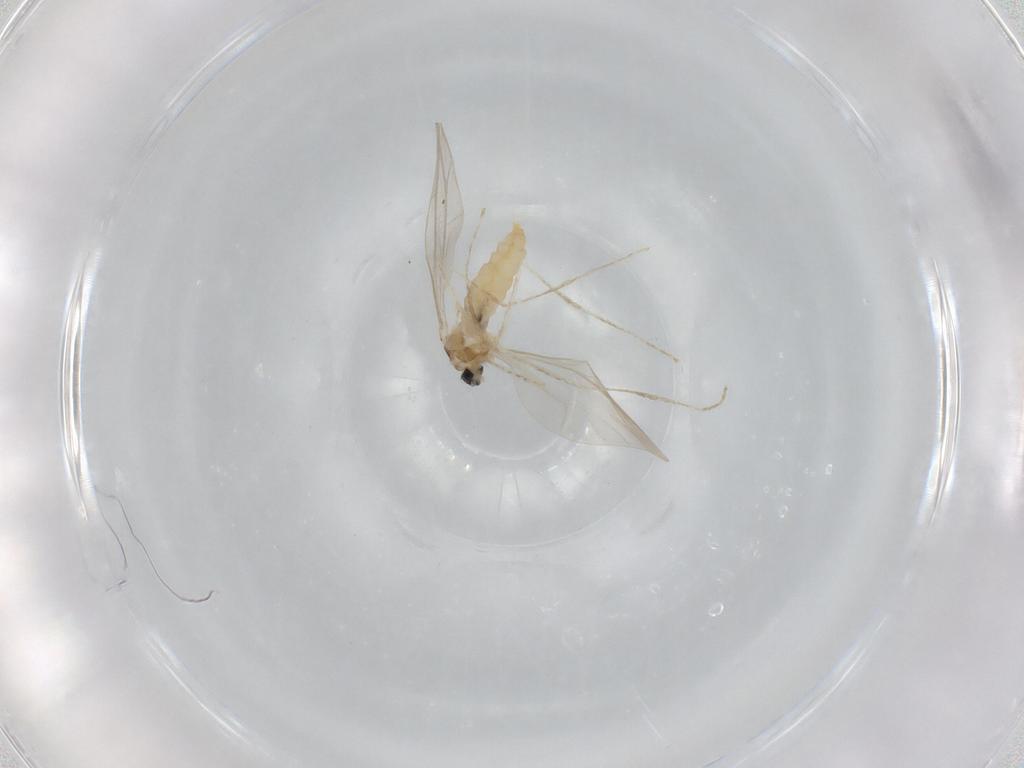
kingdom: Animalia
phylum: Arthropoda
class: Insecta
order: Diptera
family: Cecidomyiidae
